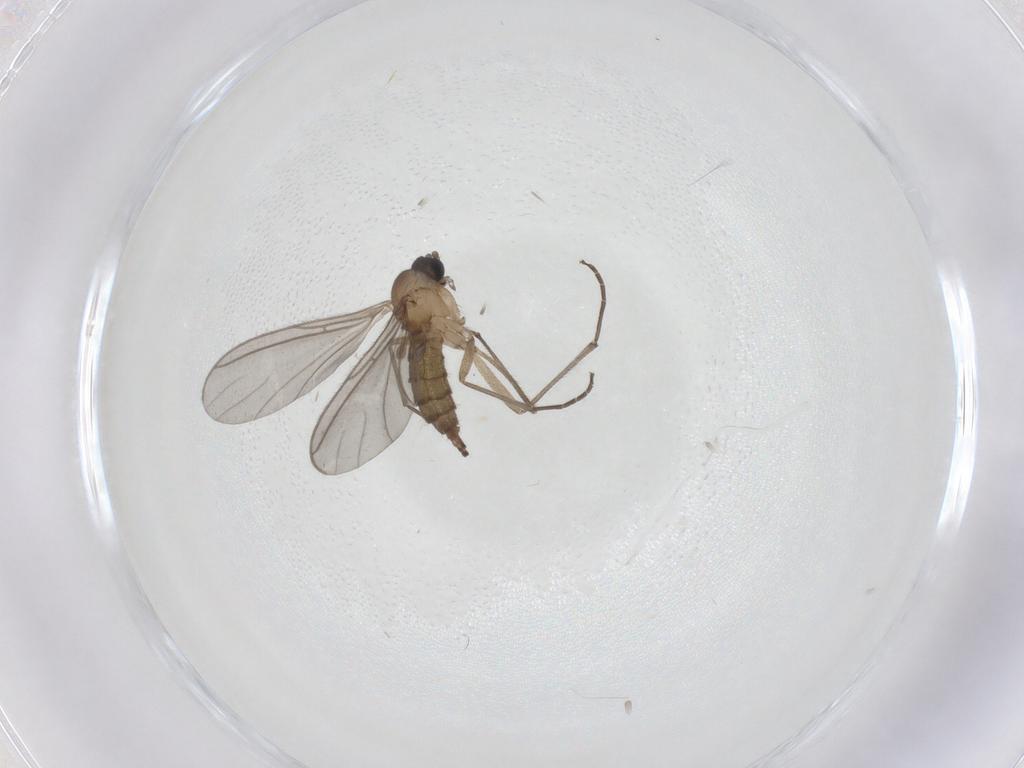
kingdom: Animalia
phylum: Arthropoda
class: Insecta
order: Diptera
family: Sciaridae
